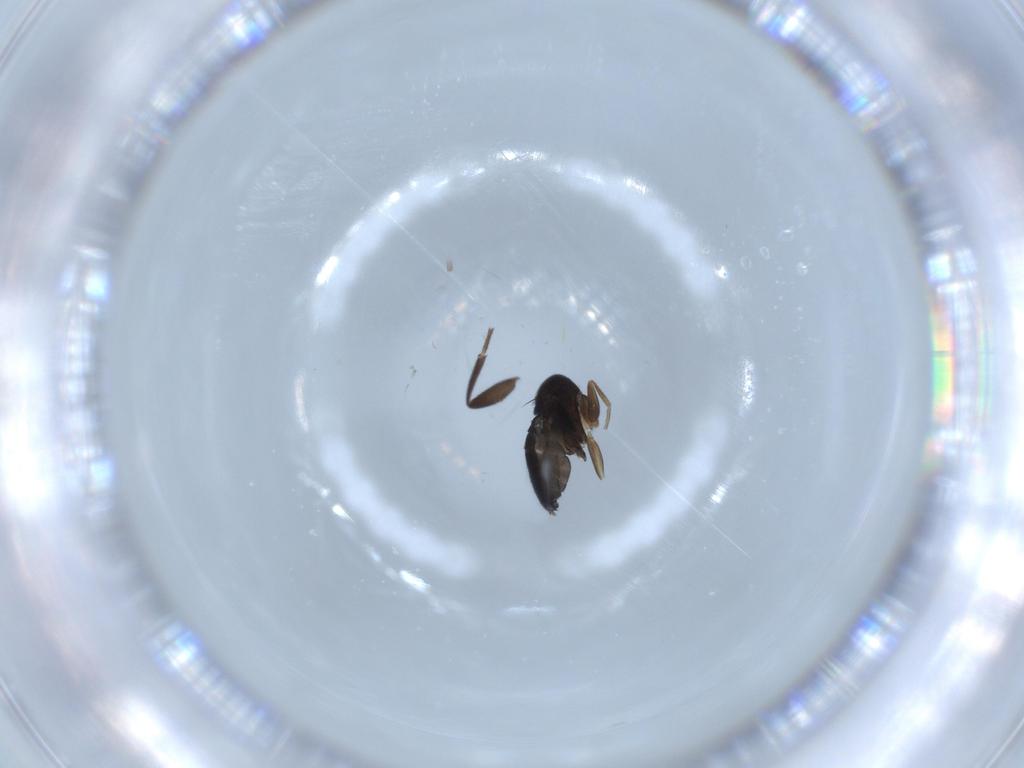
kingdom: Animalia
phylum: Arthropoda
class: Insecta
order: Diptera
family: Phoridae
